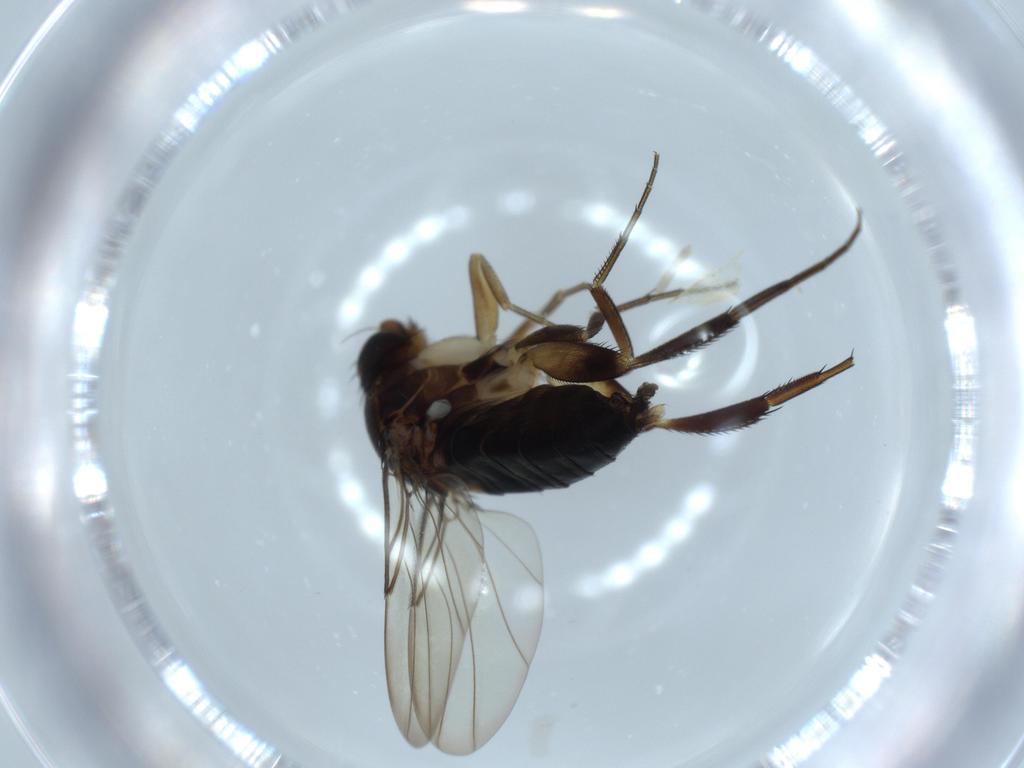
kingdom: Animalia
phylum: Arthropoda
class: Insecta
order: Diptera
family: Phoridae
